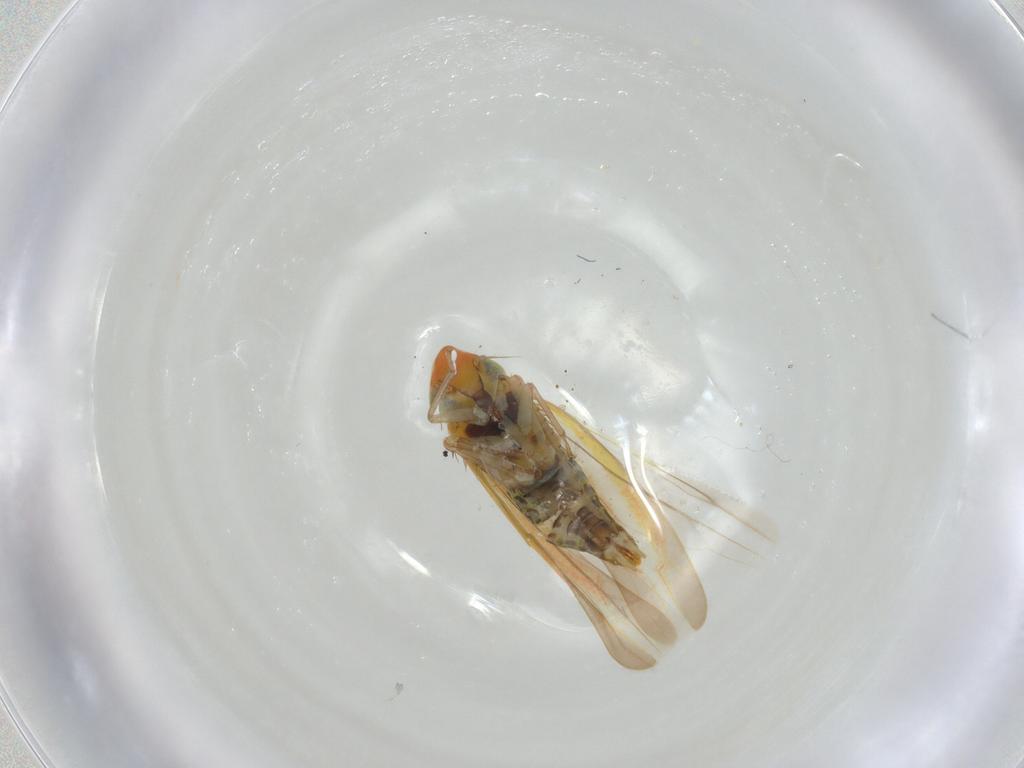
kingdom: Animalia
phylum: Arthropoda
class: Insecta
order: Hemiptera
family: Cicadellidae
